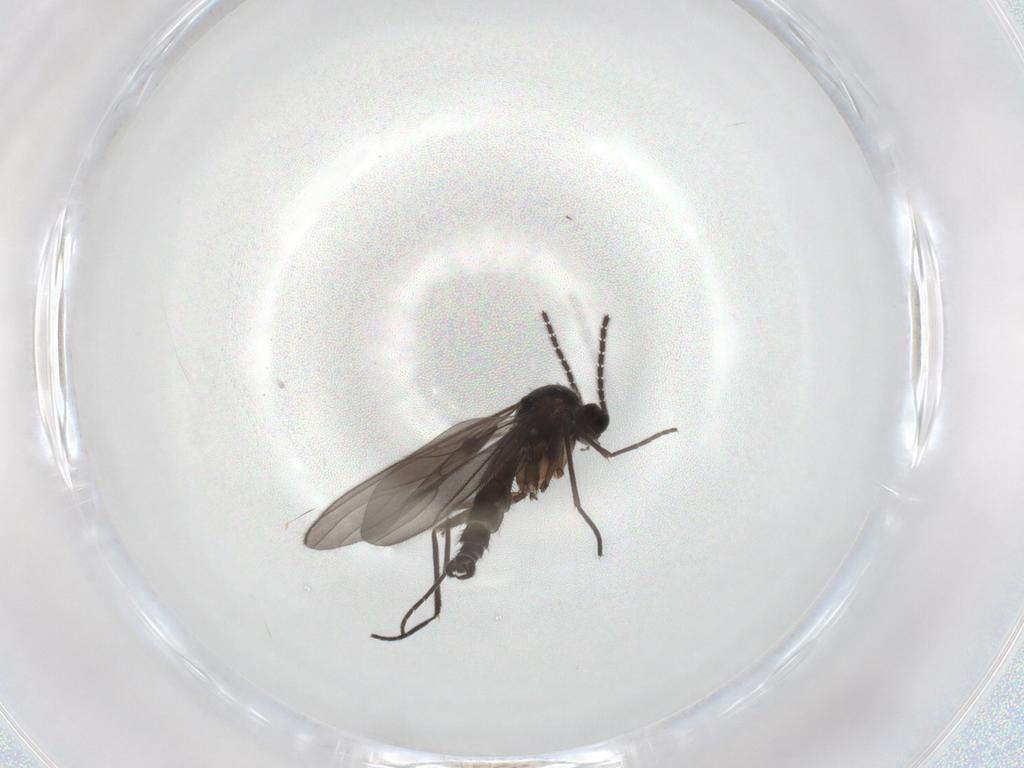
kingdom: Animalia
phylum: Arthropoda
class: Insecta
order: Diptera
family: Sciaridae
